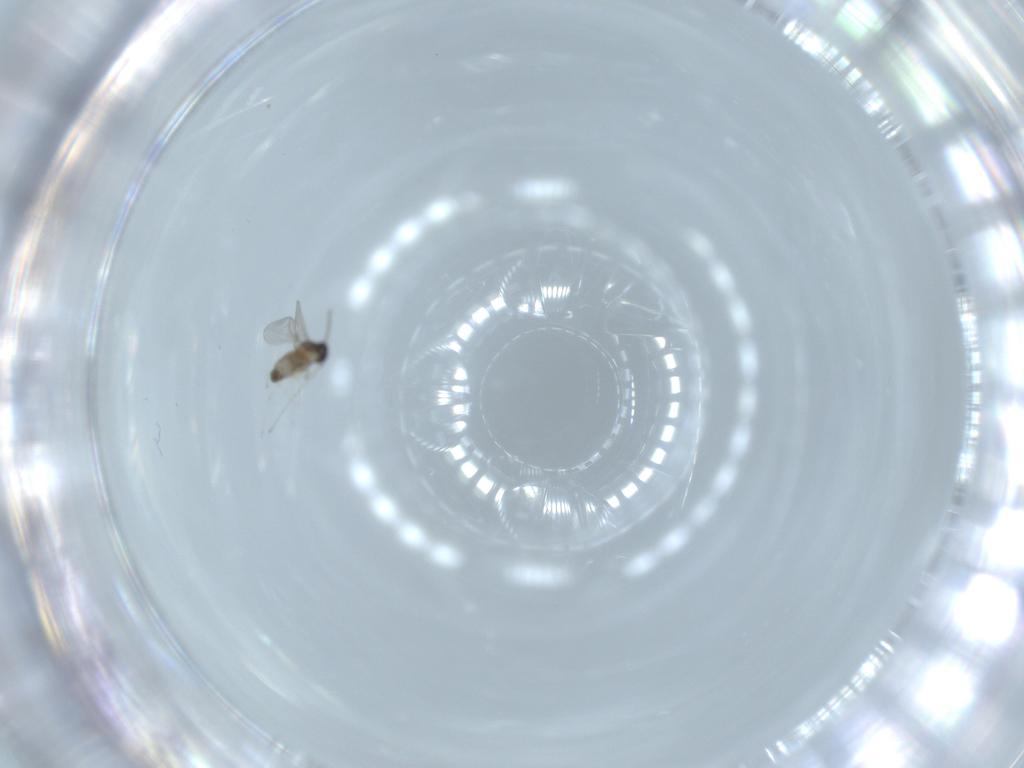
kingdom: Animalia
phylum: Arthropoda
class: Insecta
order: Diptera
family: Cecidomyiidae
